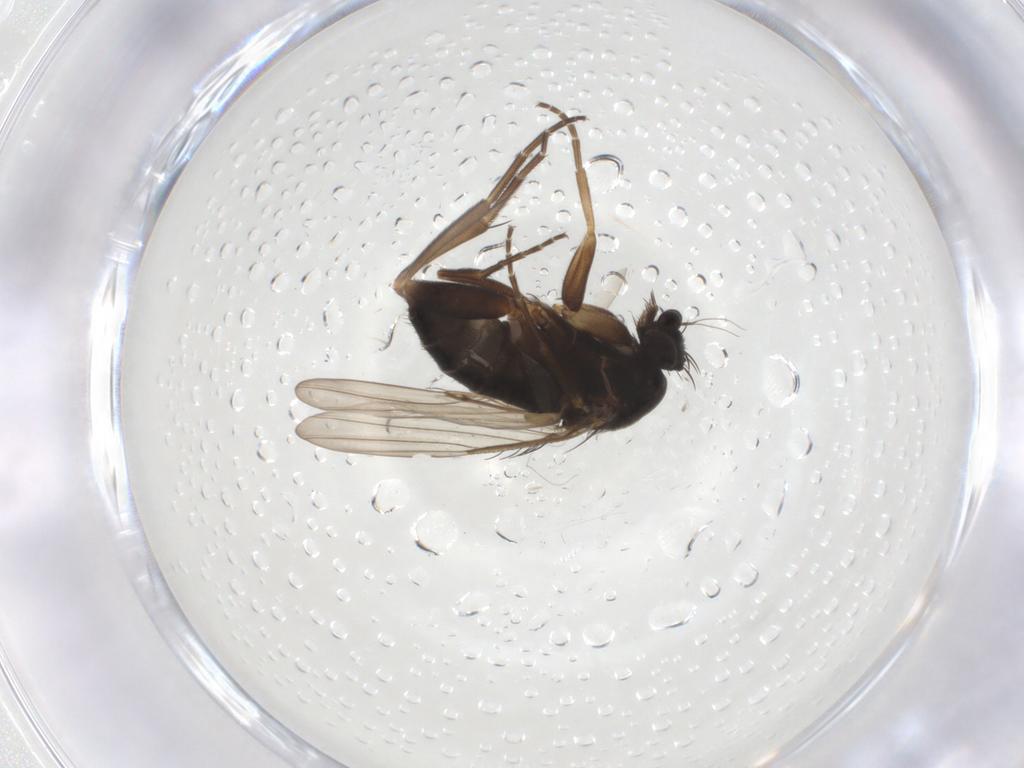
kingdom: Animalia
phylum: Arthropoda
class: Insecta
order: Diptera
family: Phoridae
